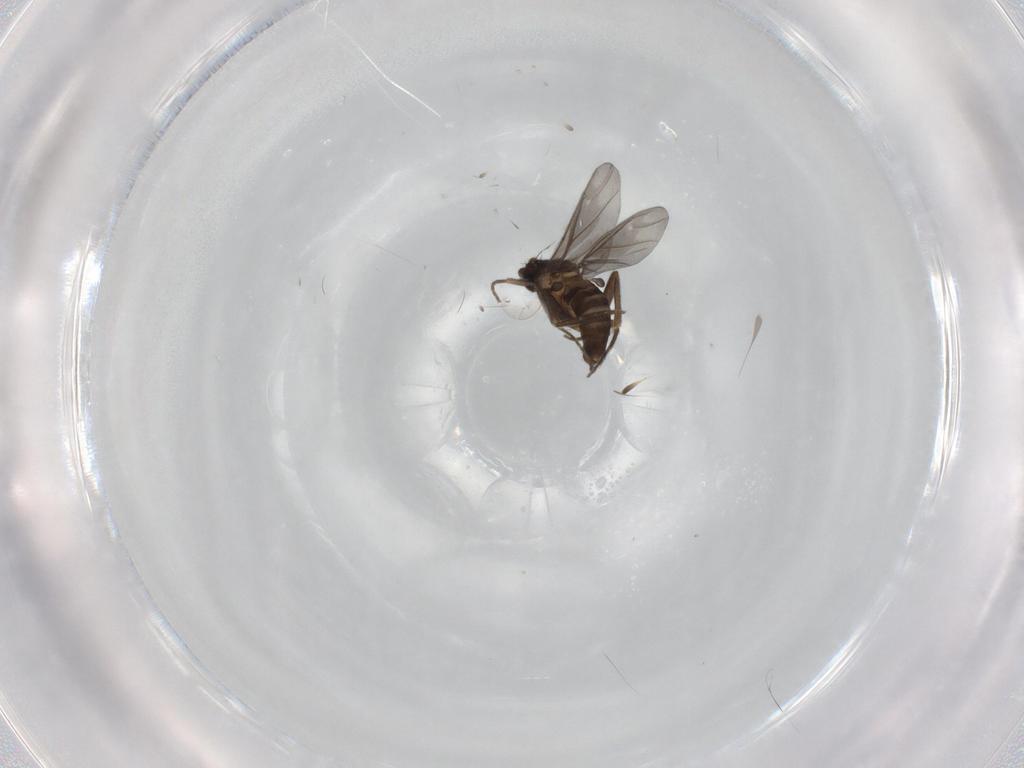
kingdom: Animalia
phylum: Arthropoda
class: Insecta
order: Diptera
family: Phoridae
